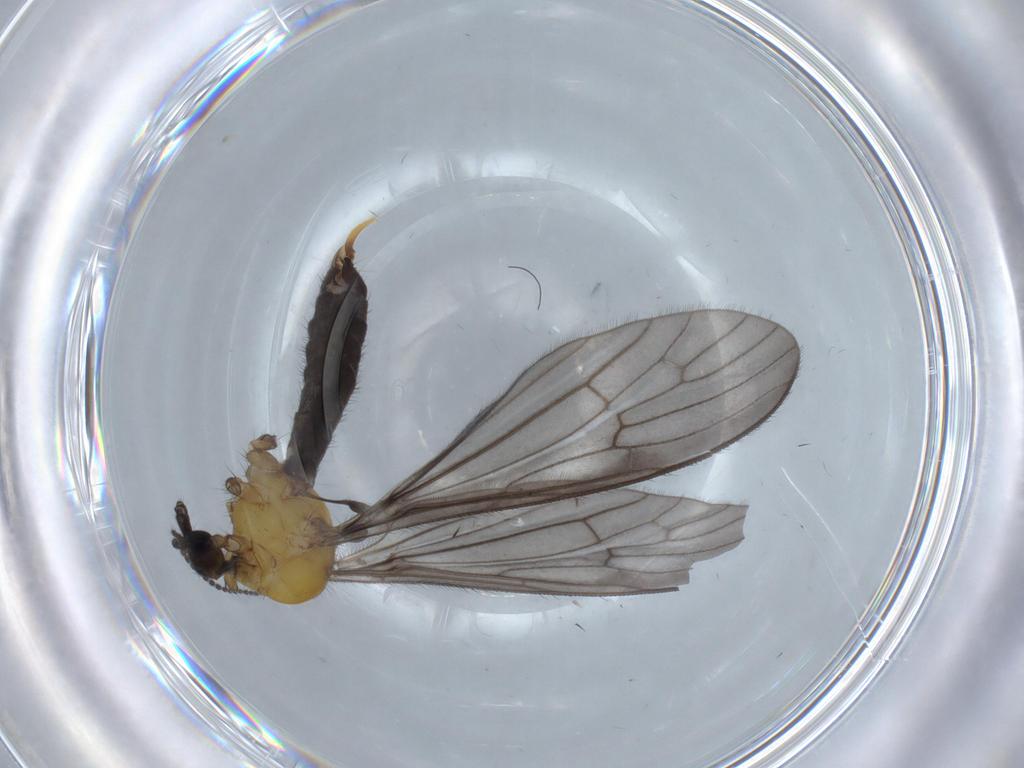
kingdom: Animalia
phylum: Arthropoda
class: Insecta
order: Diptera
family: Limoniidae
